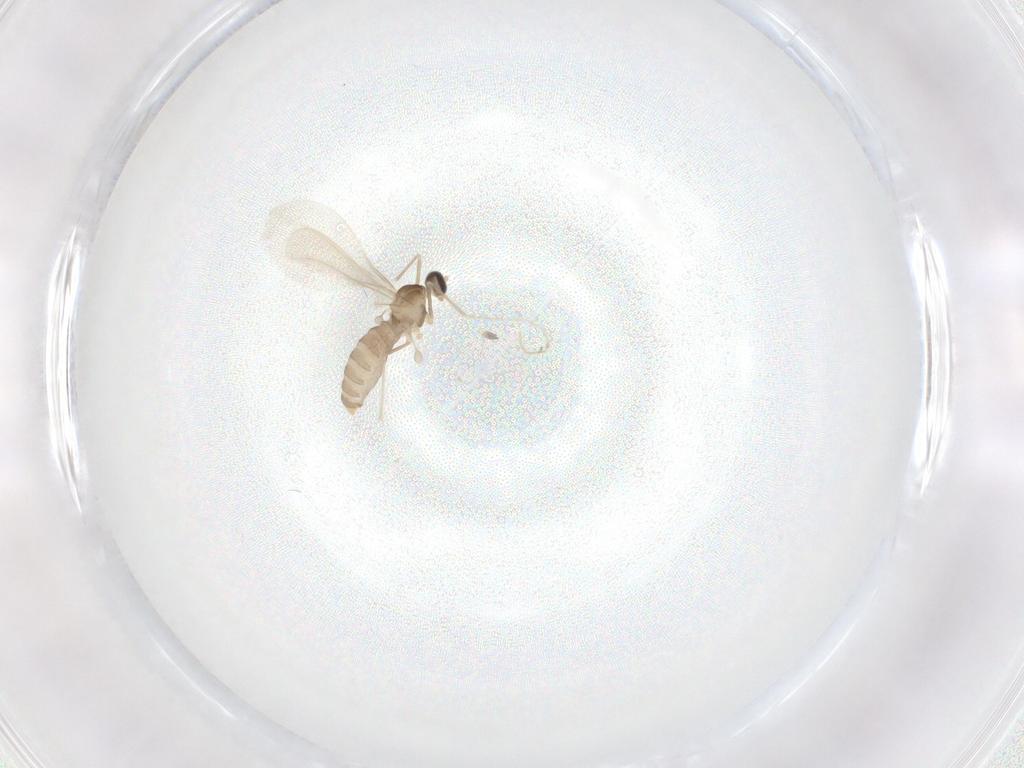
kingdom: Animalia
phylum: Arthropoda
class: Insecta
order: Diptera
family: Cecidomyiidae
